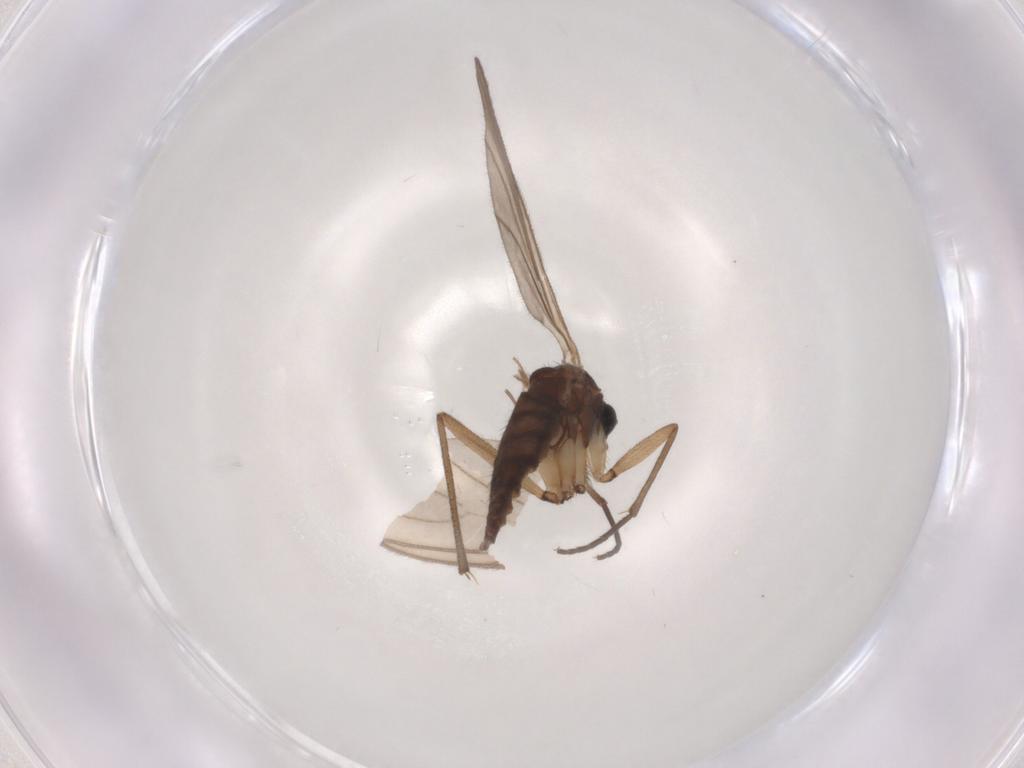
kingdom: Animalia
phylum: Arthropoda
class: Insecta
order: Diptera
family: Sciaridae
